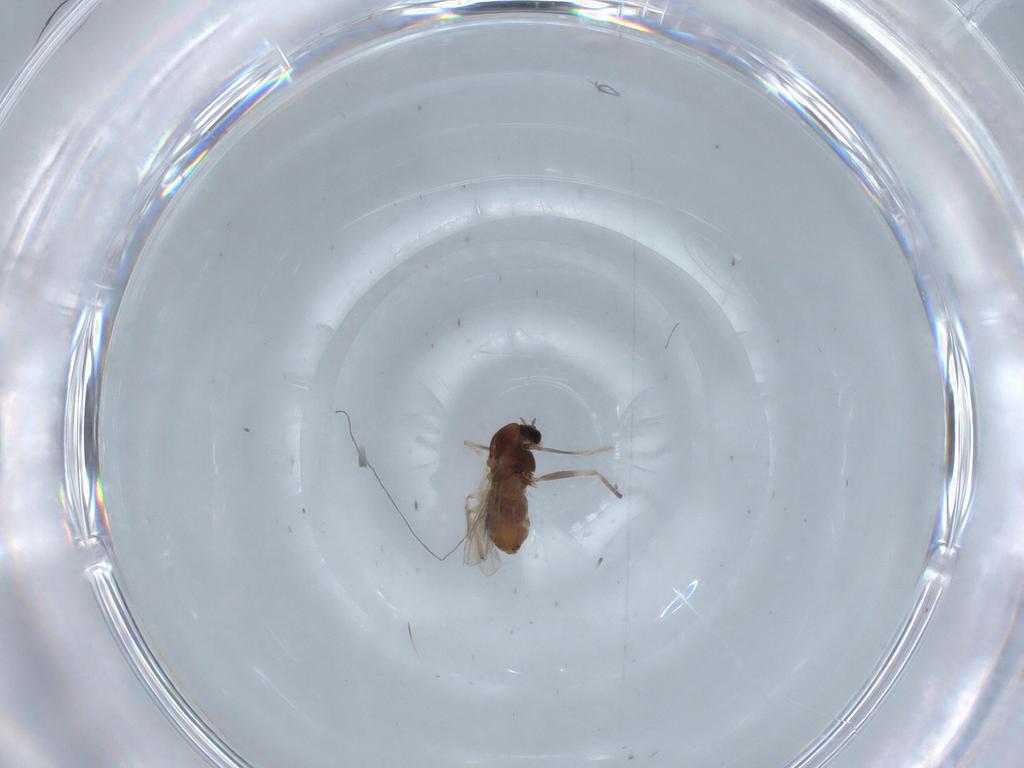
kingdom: Animalia
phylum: Arthropoda
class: Insecta
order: Diptera
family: Chironomidae
